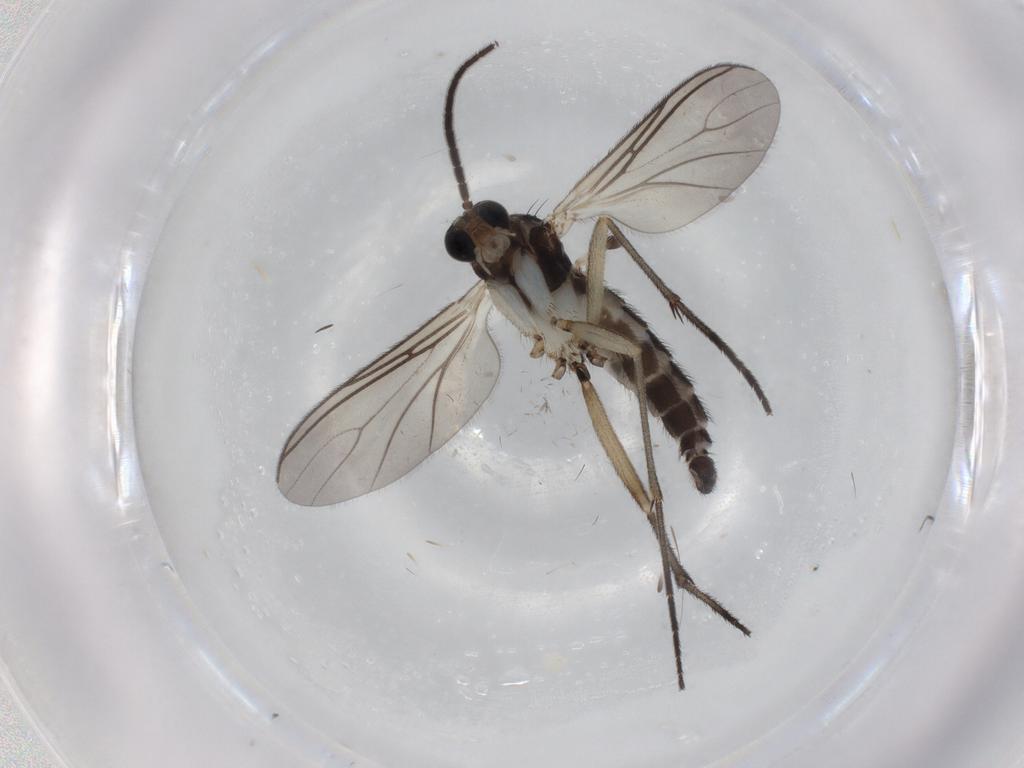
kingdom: Animalia
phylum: Arthropoda
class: Insecta
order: Diptera
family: Sciaridae
